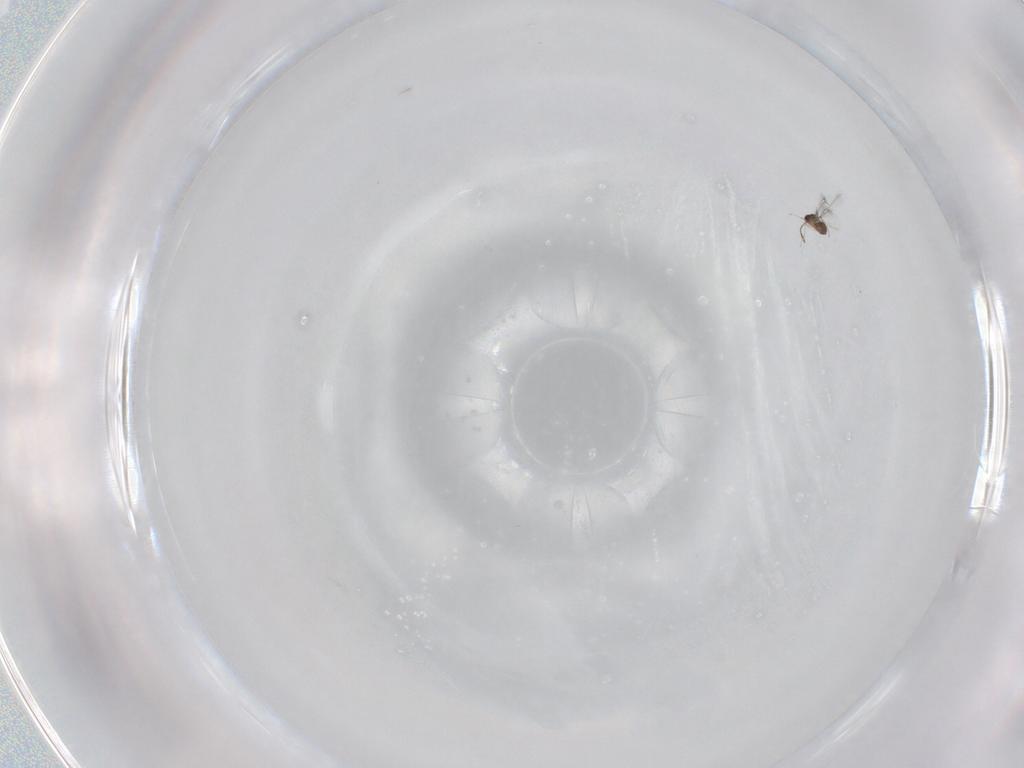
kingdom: Animalia
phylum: Arthropoda
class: Insecta
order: Hymenoptera
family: Mymaridae
